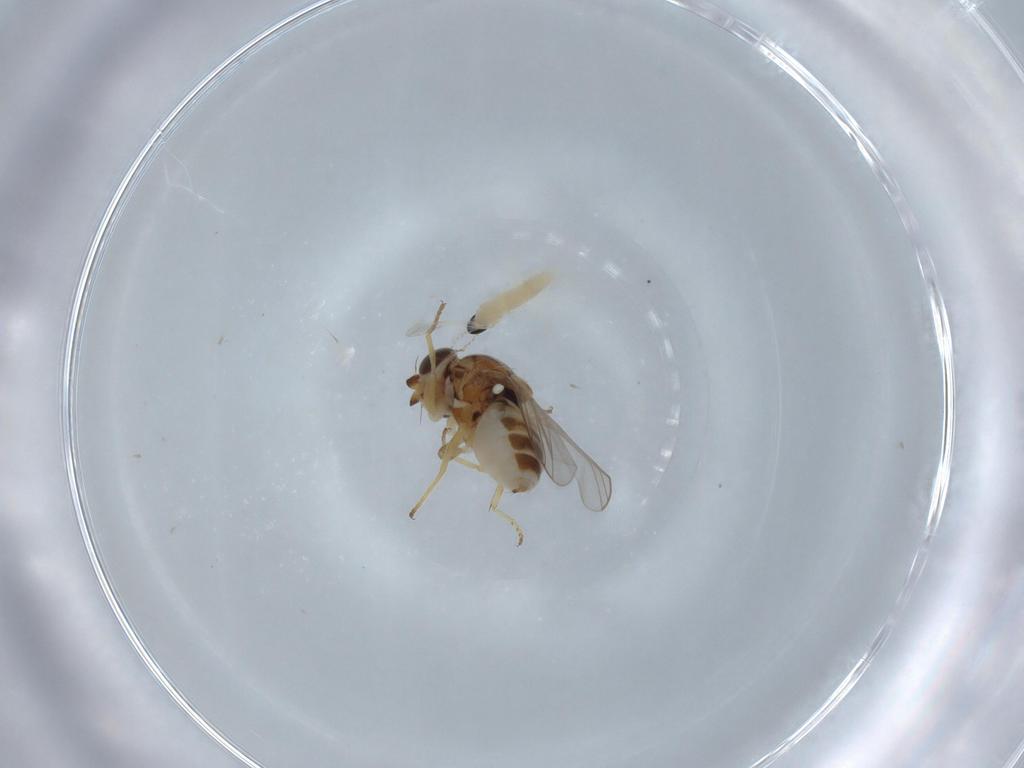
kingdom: Animalia
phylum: Arthropoda
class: Insecta
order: Diptera
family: Chloropidae
